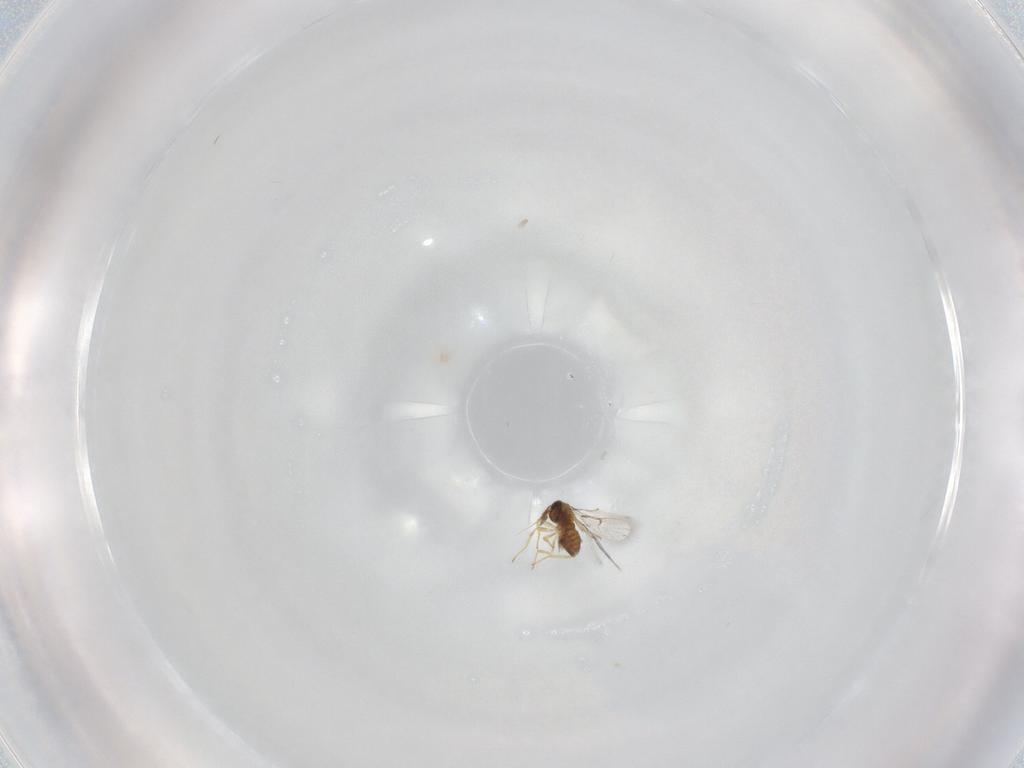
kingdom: Animalia
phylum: Arthropoda
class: Insecta
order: Hymenoptera
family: Trichogrammatidae
